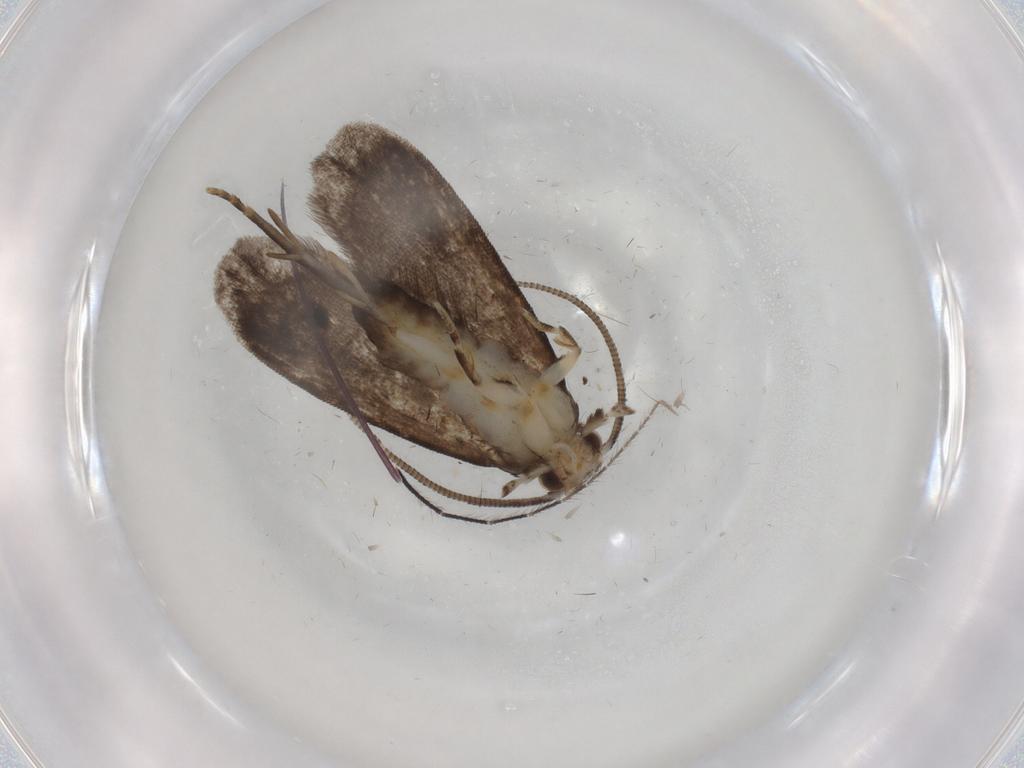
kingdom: Animalia
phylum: Arthropoda
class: Insecta
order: Lepidoptera
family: Dryadaulidae
